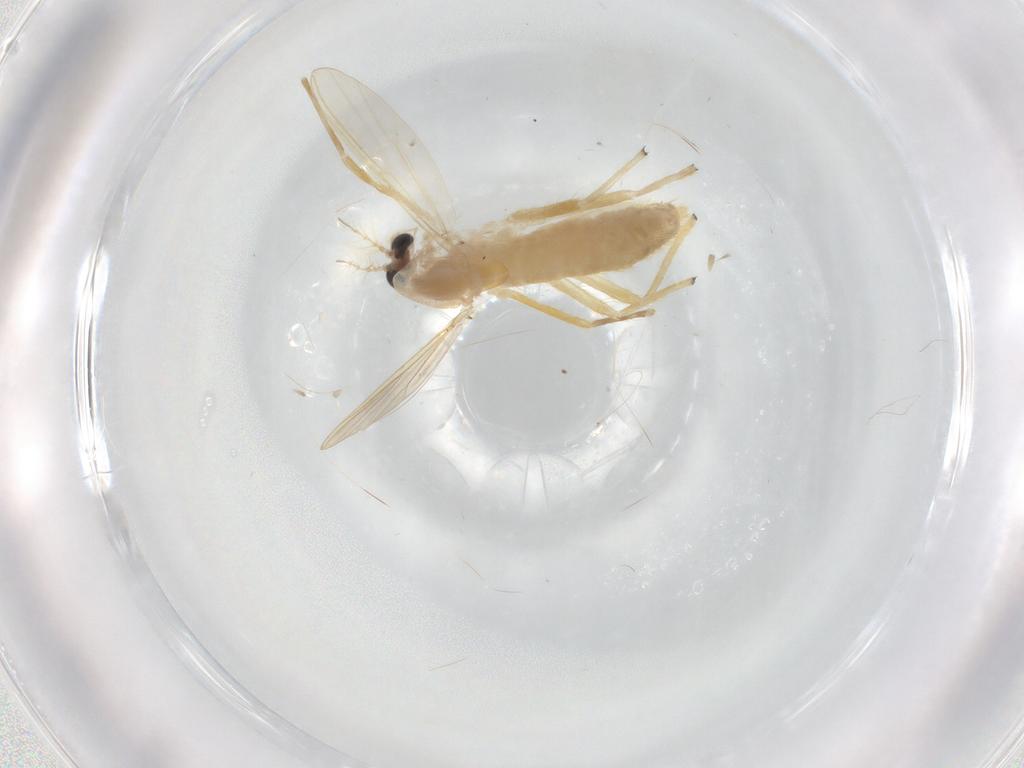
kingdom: Animalia
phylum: Arthropoda
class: Insecta
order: Diptera
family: Chironomidae
